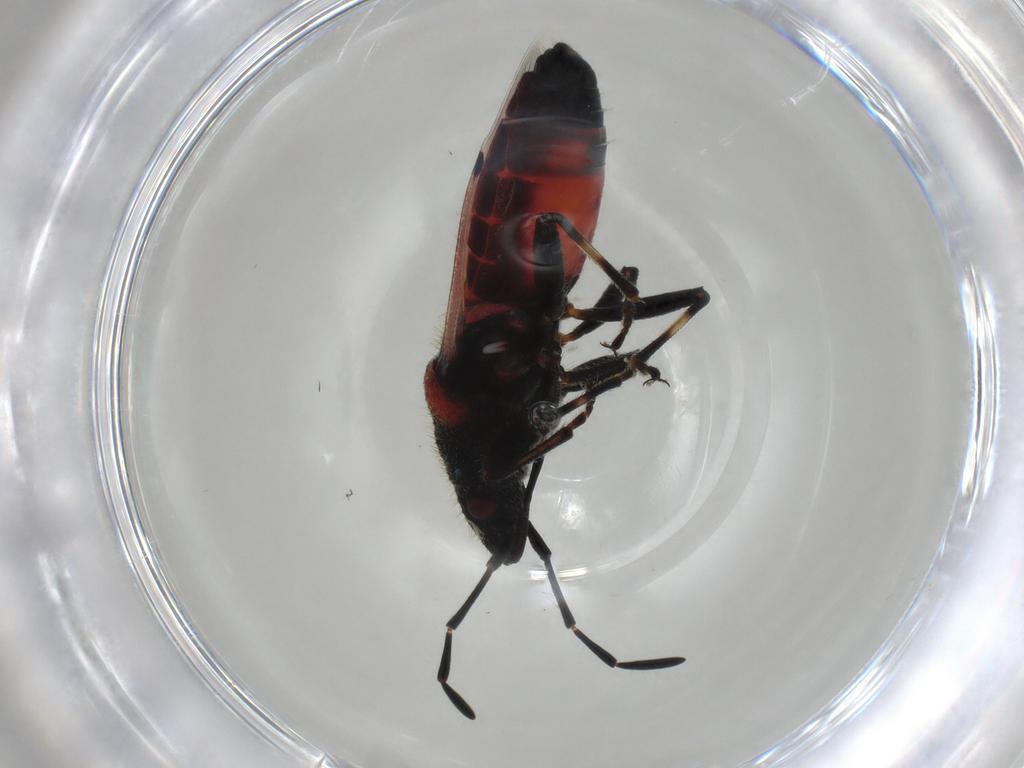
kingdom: Animalia
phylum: Arthropoda
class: Insecta
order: Hemiptera
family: Oxycarenidae
